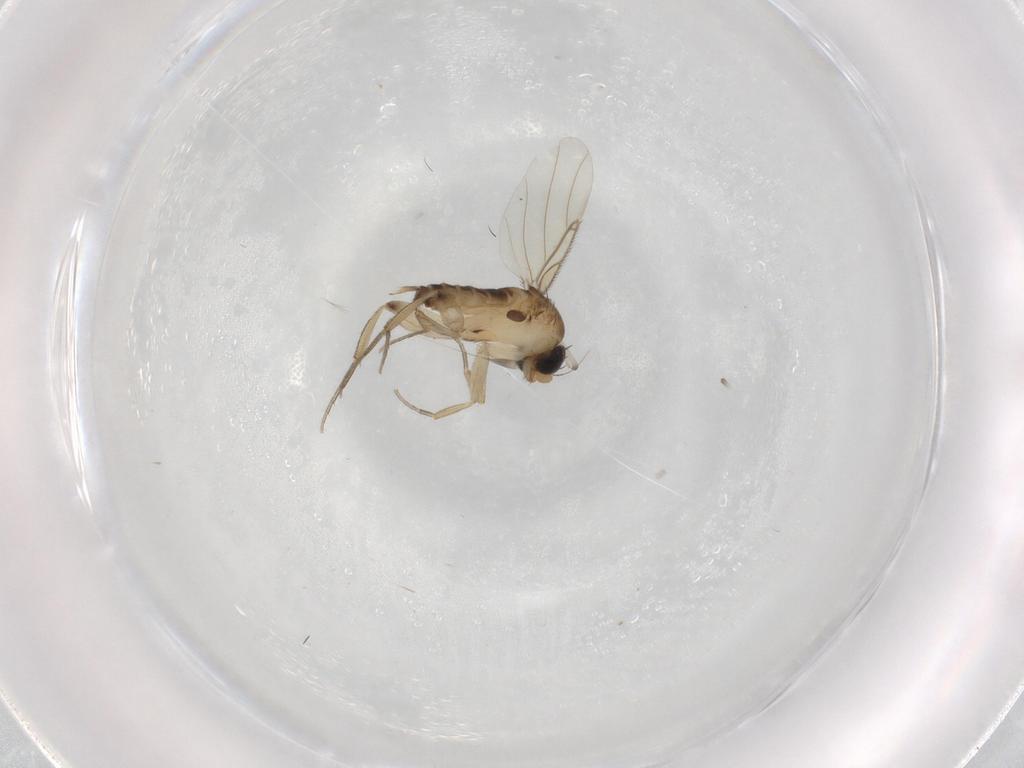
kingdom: Animalia
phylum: Arthropoda
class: Insecta
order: Diptera
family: Phoridae
